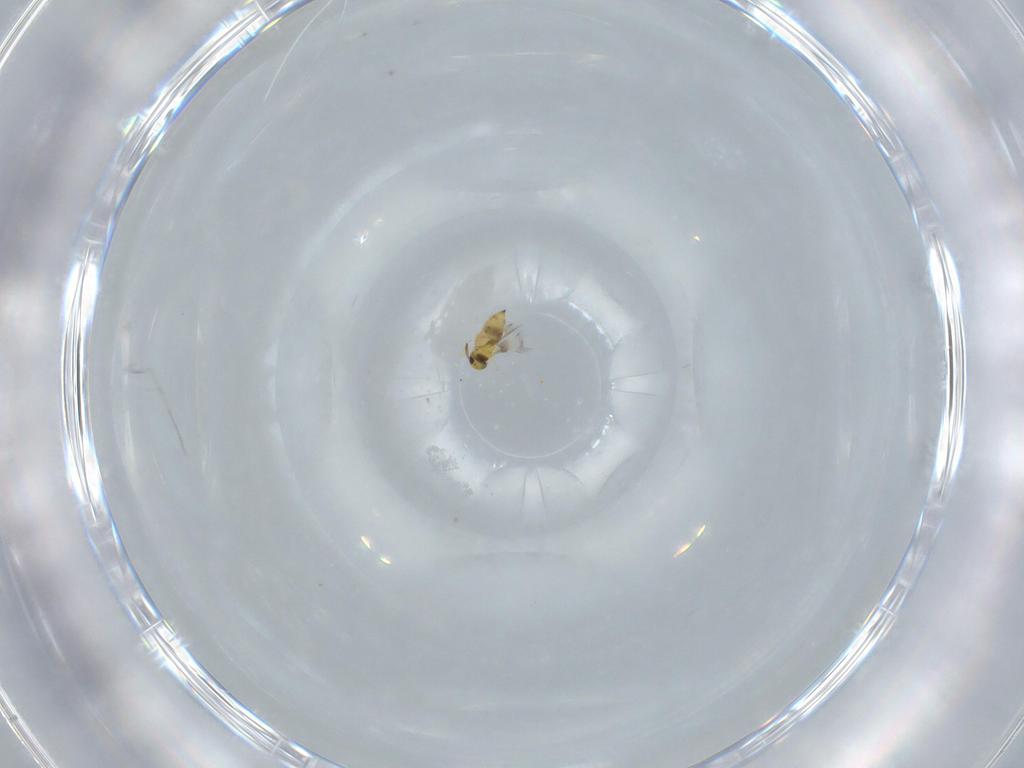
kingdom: Animalia
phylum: Arthropoda
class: Insecta
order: Hymenoptera
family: Signiphoridae
